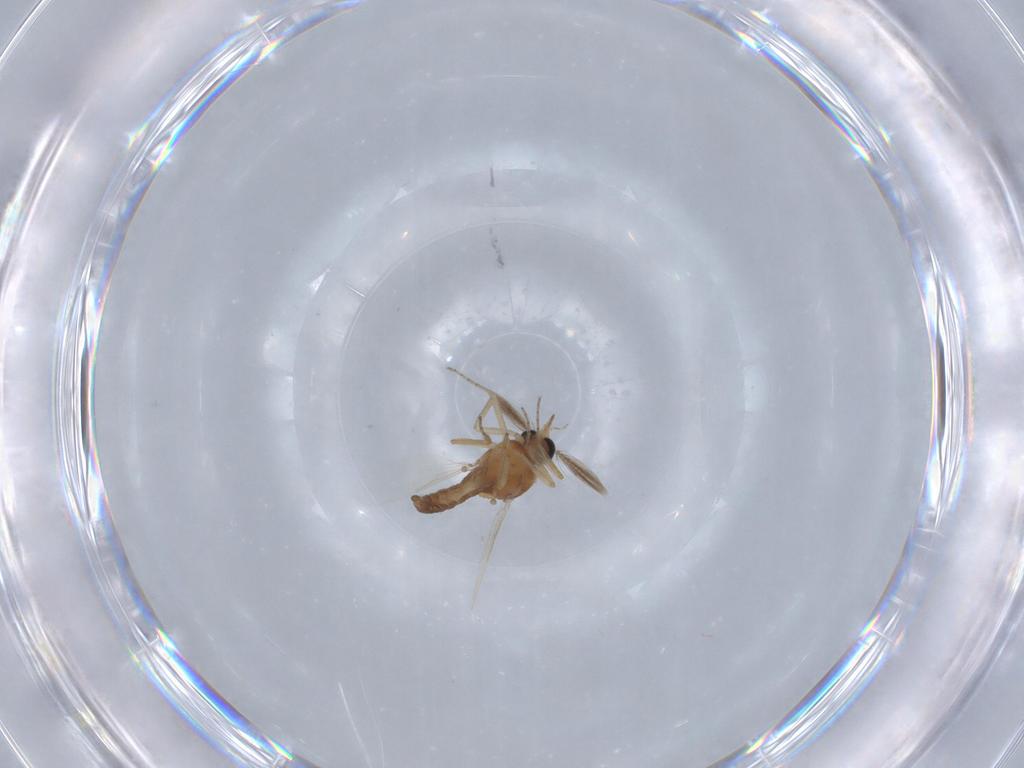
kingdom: Animalia
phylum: Arthropoda
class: Insecta
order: Diptera
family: Ceratopogonidae
